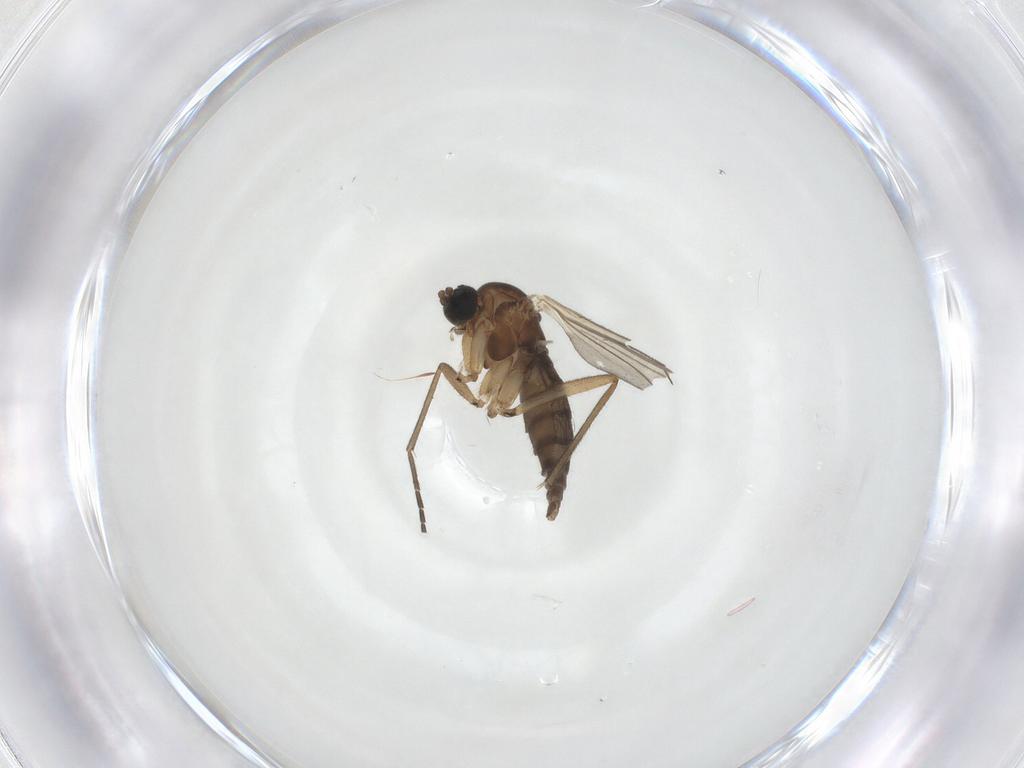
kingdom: Animalia
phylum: Arthropoda
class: Insecta
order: Diptera
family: Sciaridae
